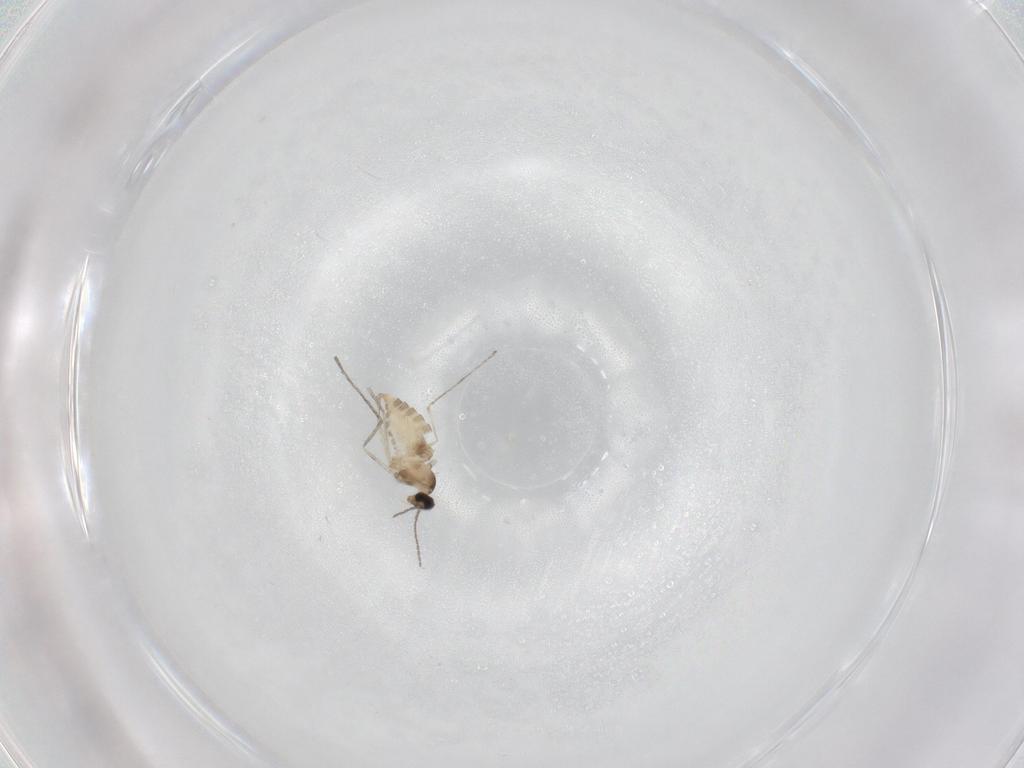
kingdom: Animalia
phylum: Arthropoda
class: Insecta
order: Diptera
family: Cecidomyiidae
